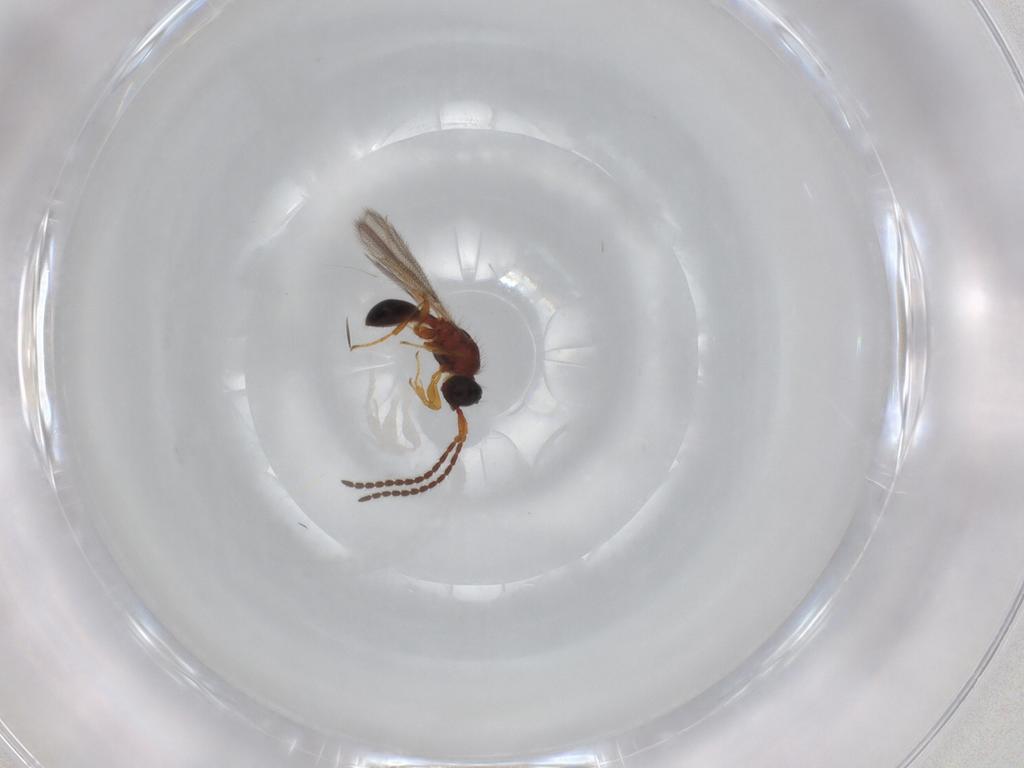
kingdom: Animalia
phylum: Arthropoda
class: Insecta
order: Hymenoptera
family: Diapriidae
